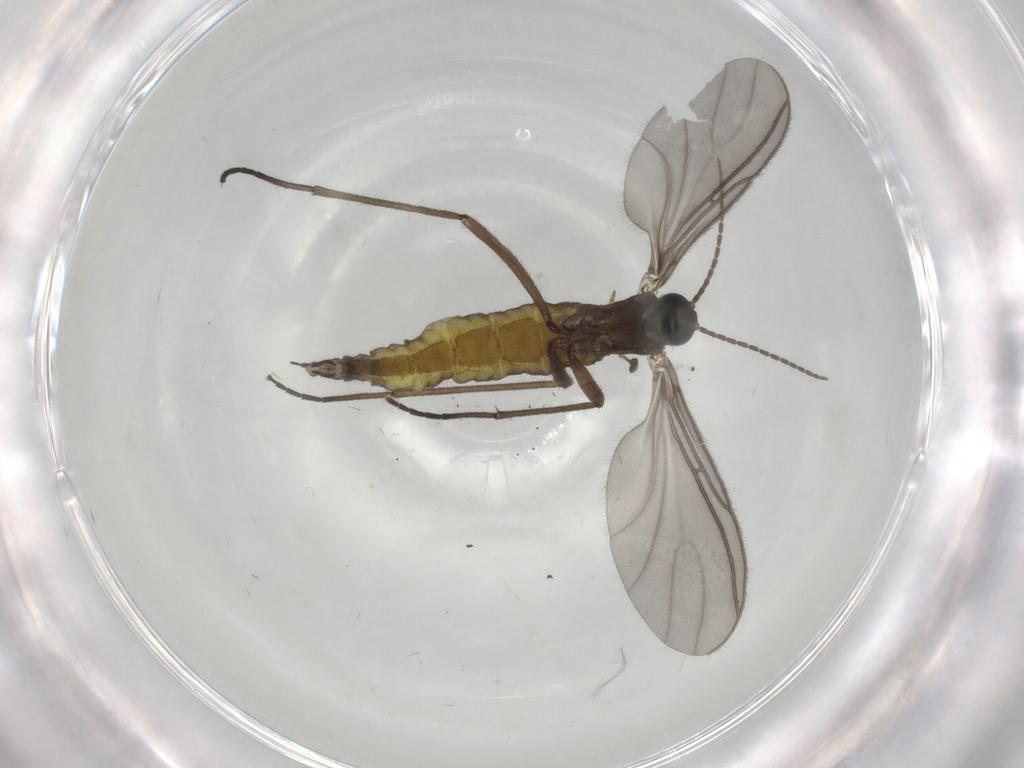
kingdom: Animalia
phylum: Arthropoda
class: Insecta
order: Diptera
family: Sciaridae
